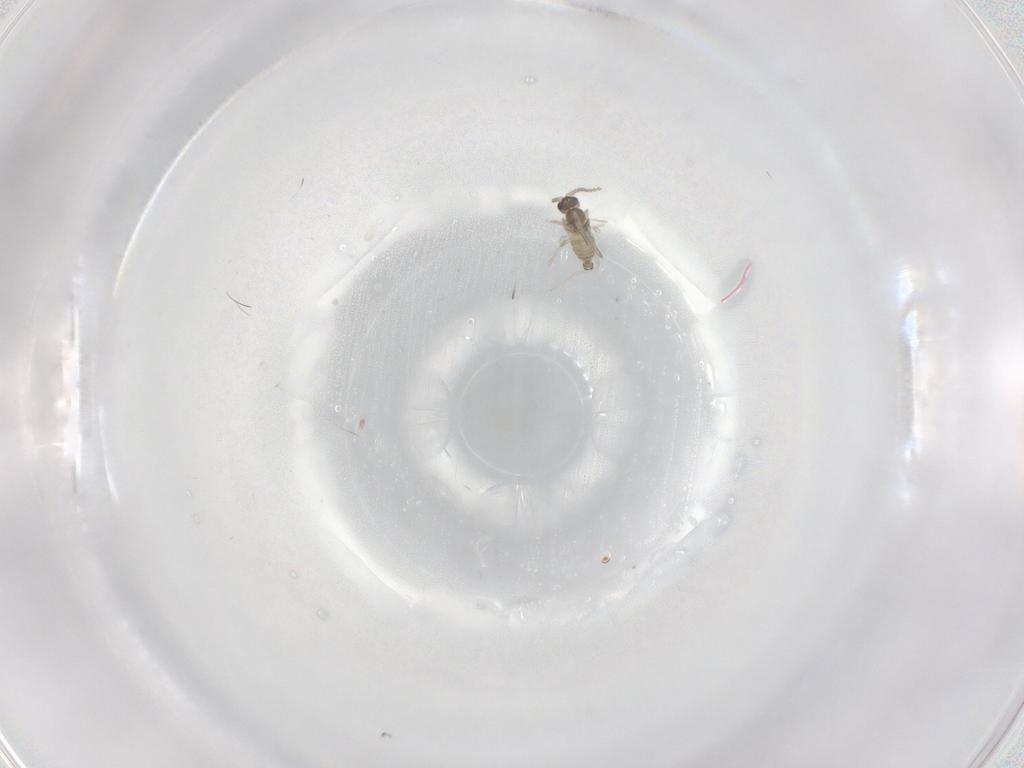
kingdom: Animalia
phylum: Arthropoda
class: Insecta
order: Diptera
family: Cecidomyiidae
